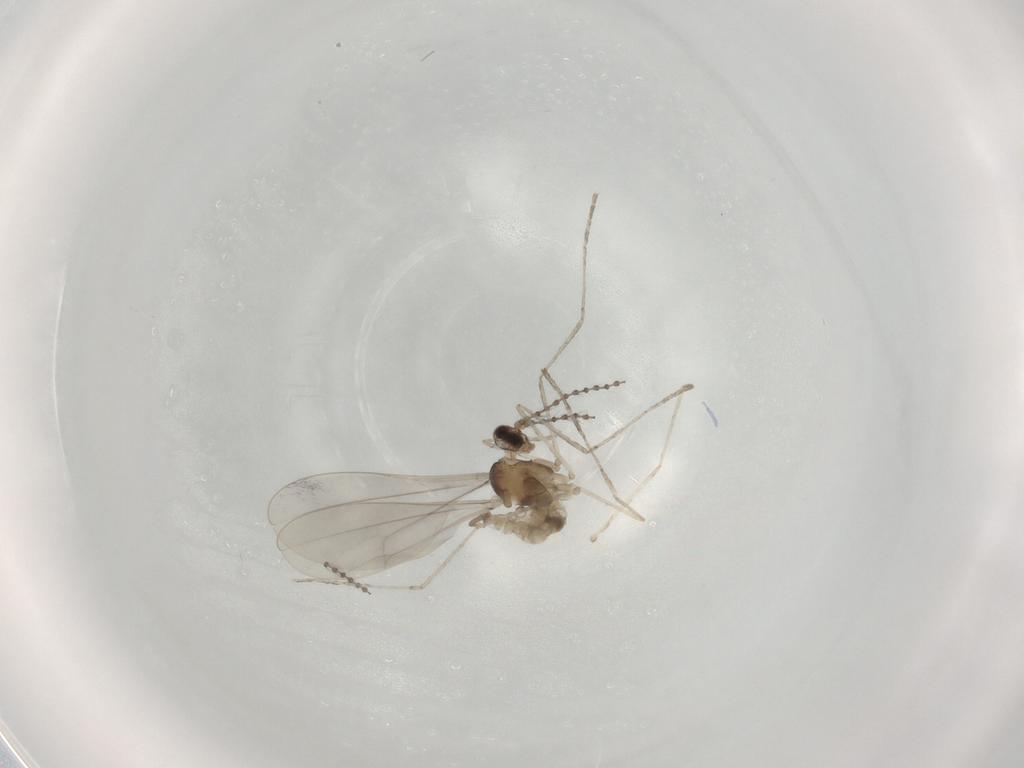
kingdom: Animalia
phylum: Arthropoda
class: Insecta
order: Diptera
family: Cecidomyiidae
